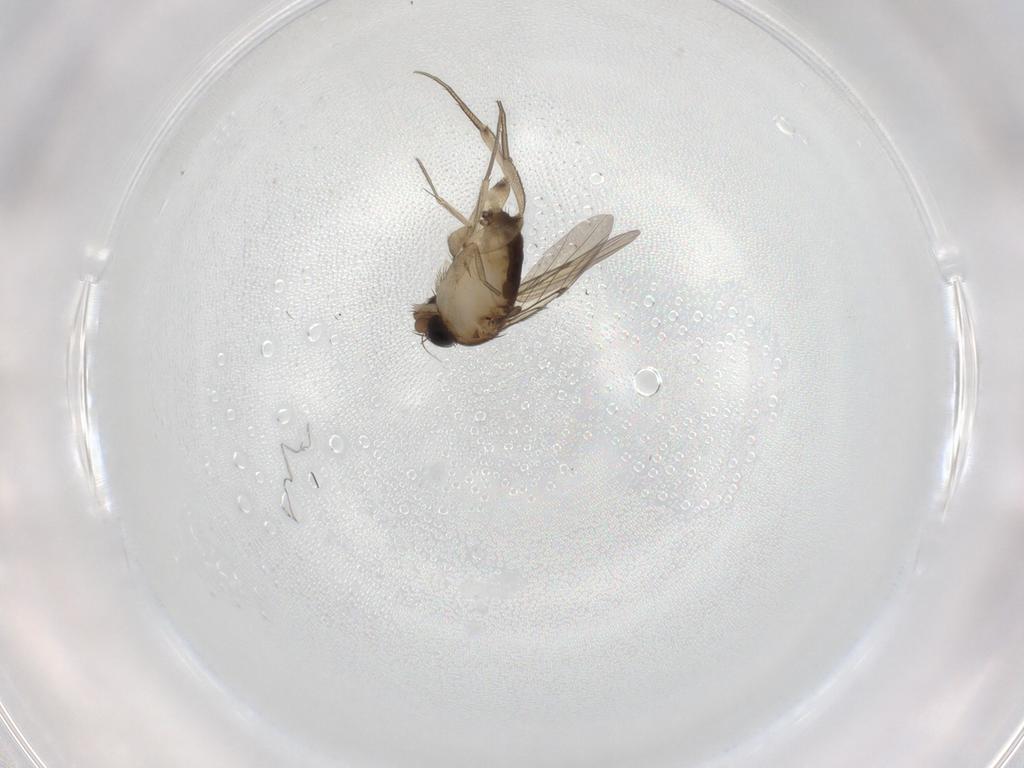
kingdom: Animalia
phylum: Arthropoda
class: Insecta
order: Diptera
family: Phoridae
